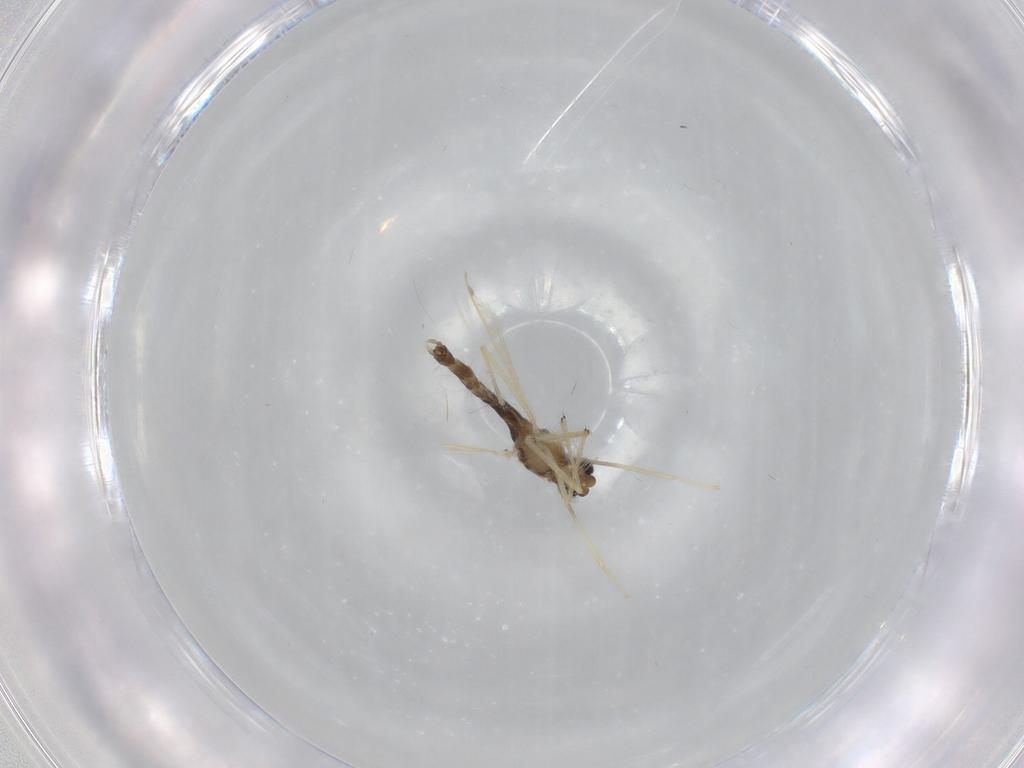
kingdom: Animalia
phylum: Arthropoda
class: Insecta
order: Diptera
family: Chironomidae
